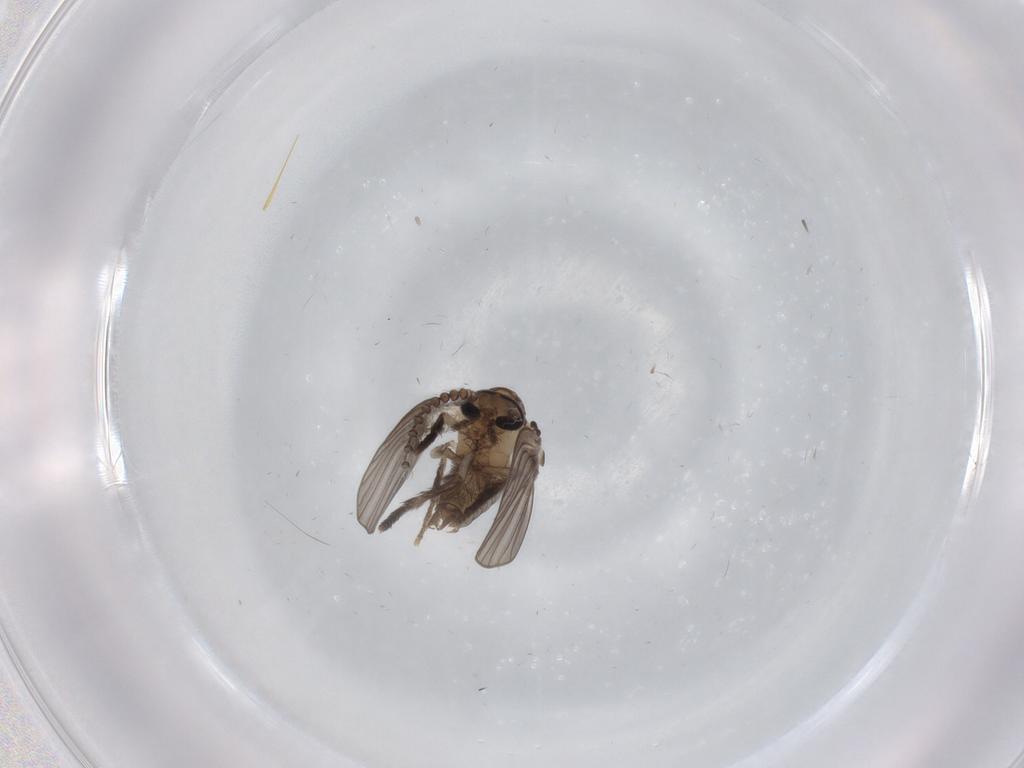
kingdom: Animalia
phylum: Arthropoda
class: Insecta
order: Diptera
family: Psychodidae
